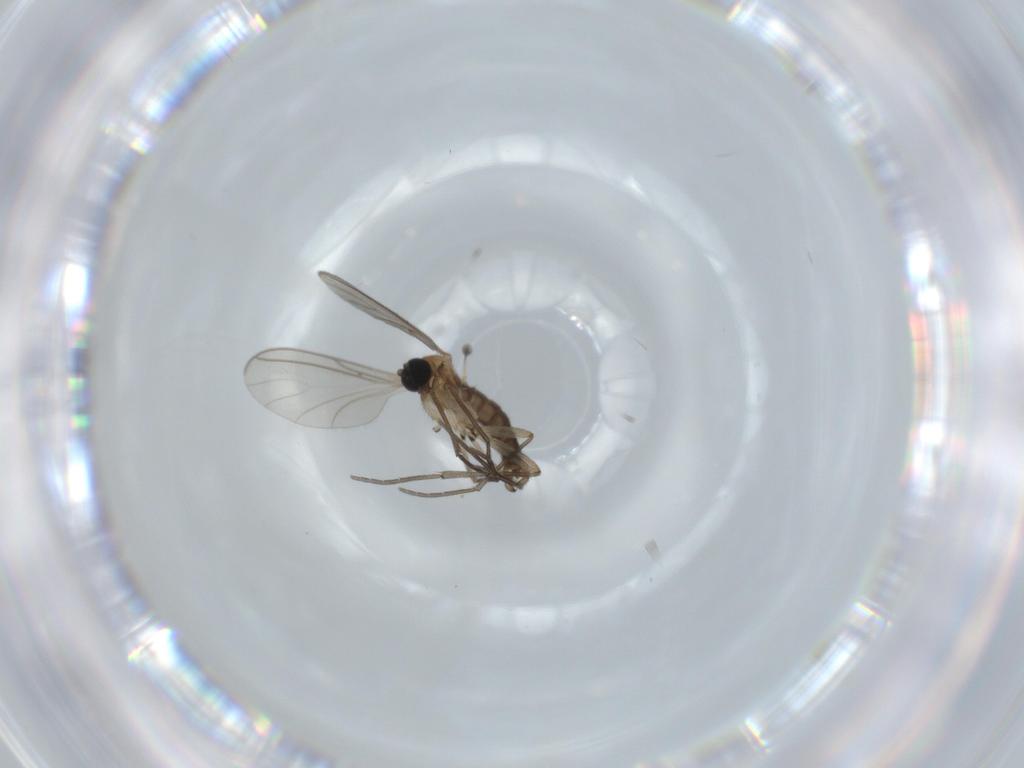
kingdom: Animalia
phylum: Arthropoda
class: Insecta
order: Diptera
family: Sciaridae
